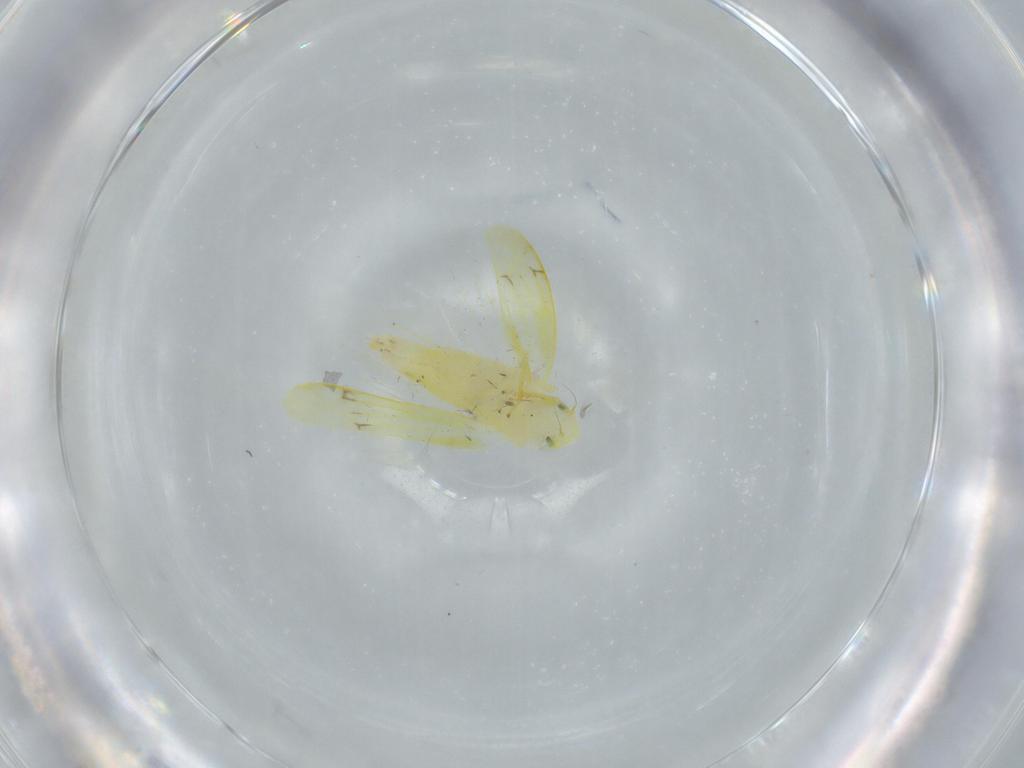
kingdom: Animalia
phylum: Arthropoda
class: Insecta
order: Hemiptera
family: Cicadellidae
